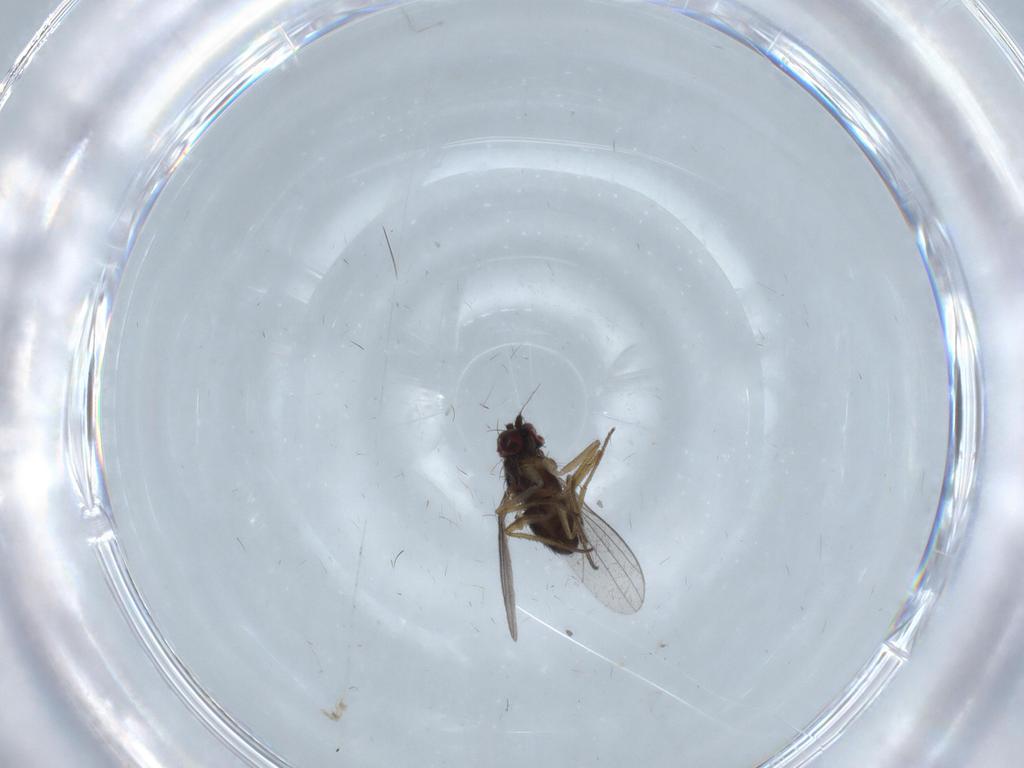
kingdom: Animalia
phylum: Arthropoda
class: Insecta
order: Diptera
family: Dolichopodidae
